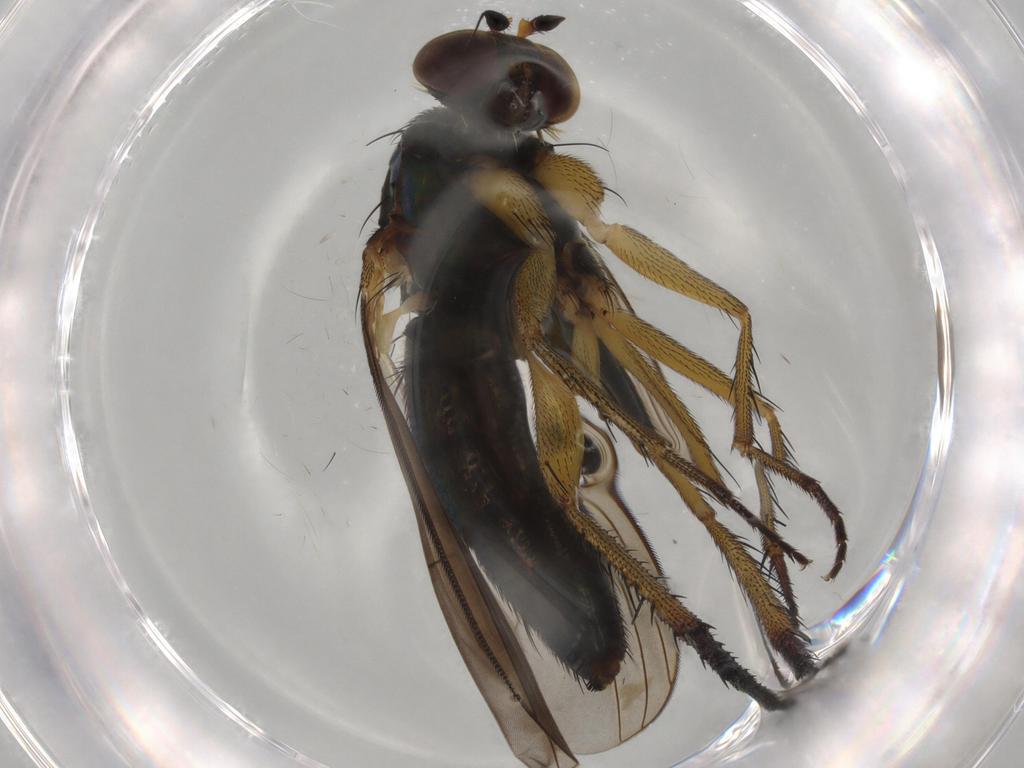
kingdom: Animalia
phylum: Arthropoda
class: Insecta
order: Diptera
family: Dolichopodidae
